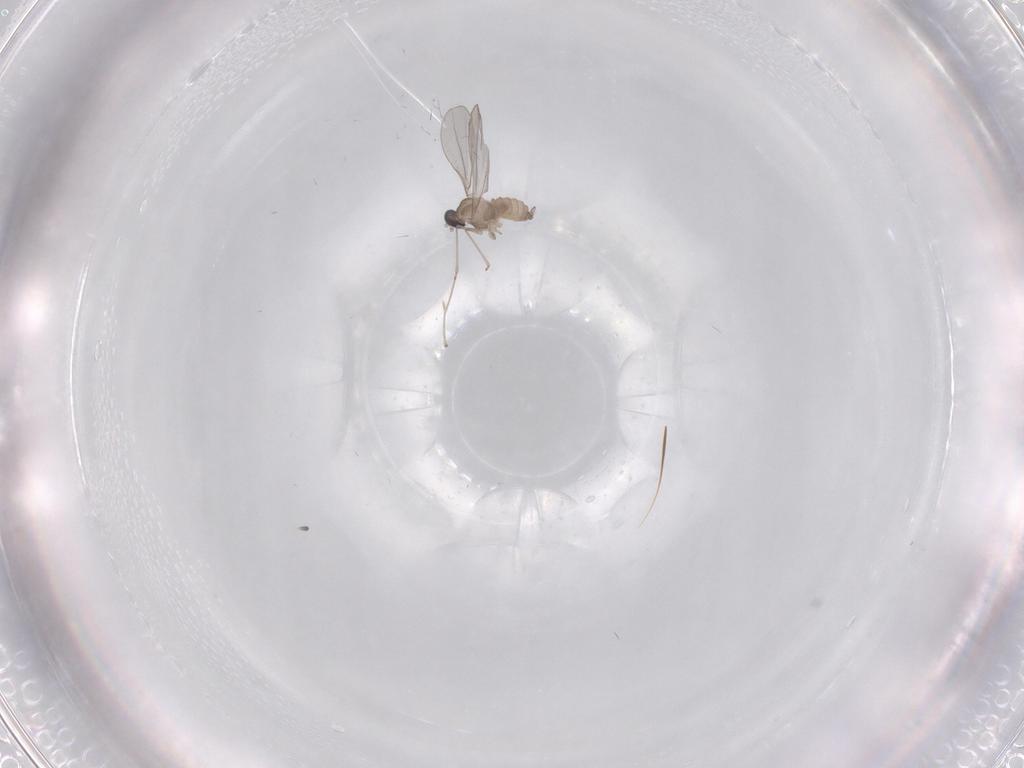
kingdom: Animalia
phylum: Arthropoda
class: Insecta
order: Diptera
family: Cecidomyiidae
